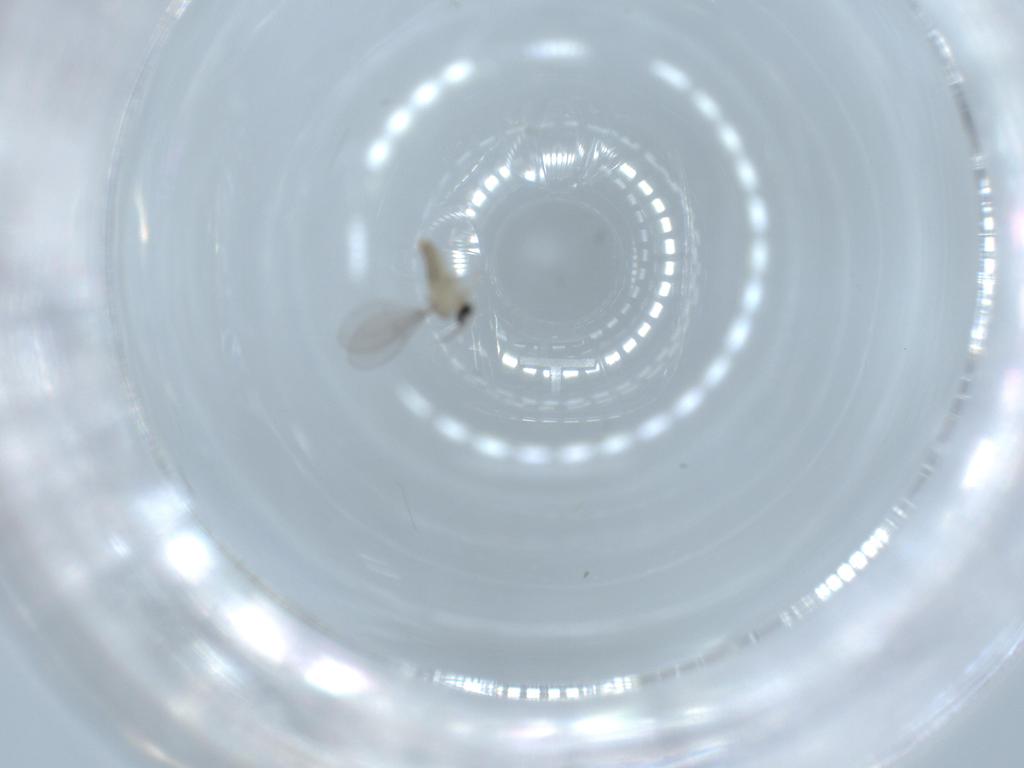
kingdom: Animalia
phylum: Arthropoda
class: Insecta
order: Diptera
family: Cecidomyiidae
